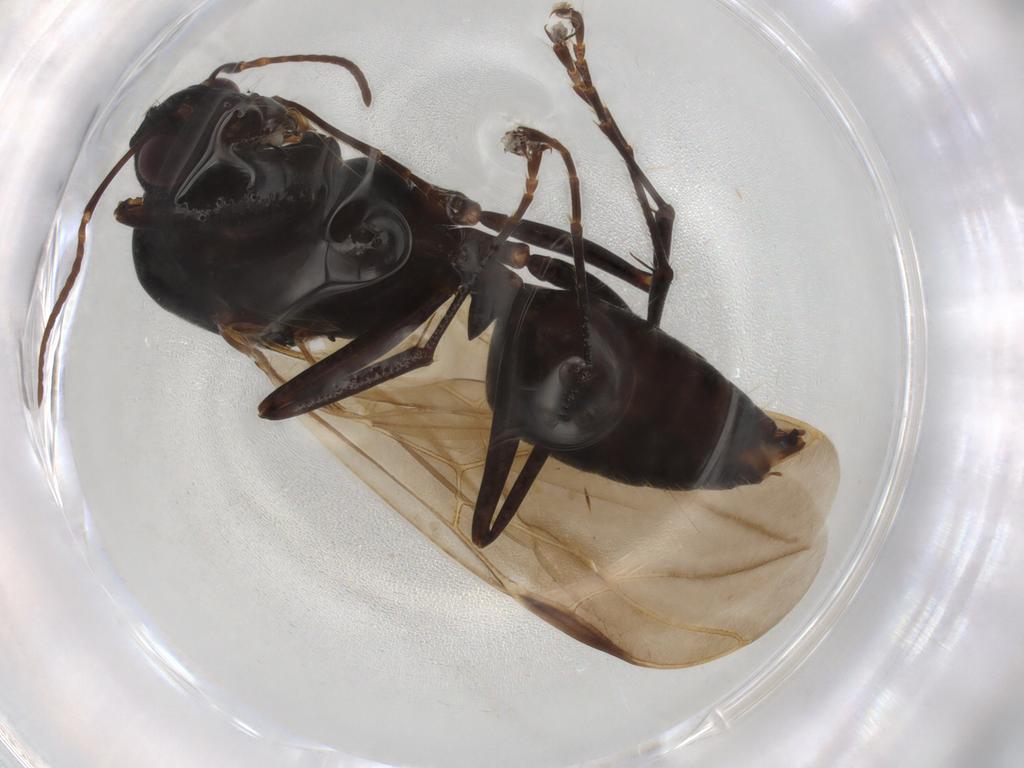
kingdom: Animalia
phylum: Arthropoda
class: Insecta
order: Hymenoptera
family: Formicidae
